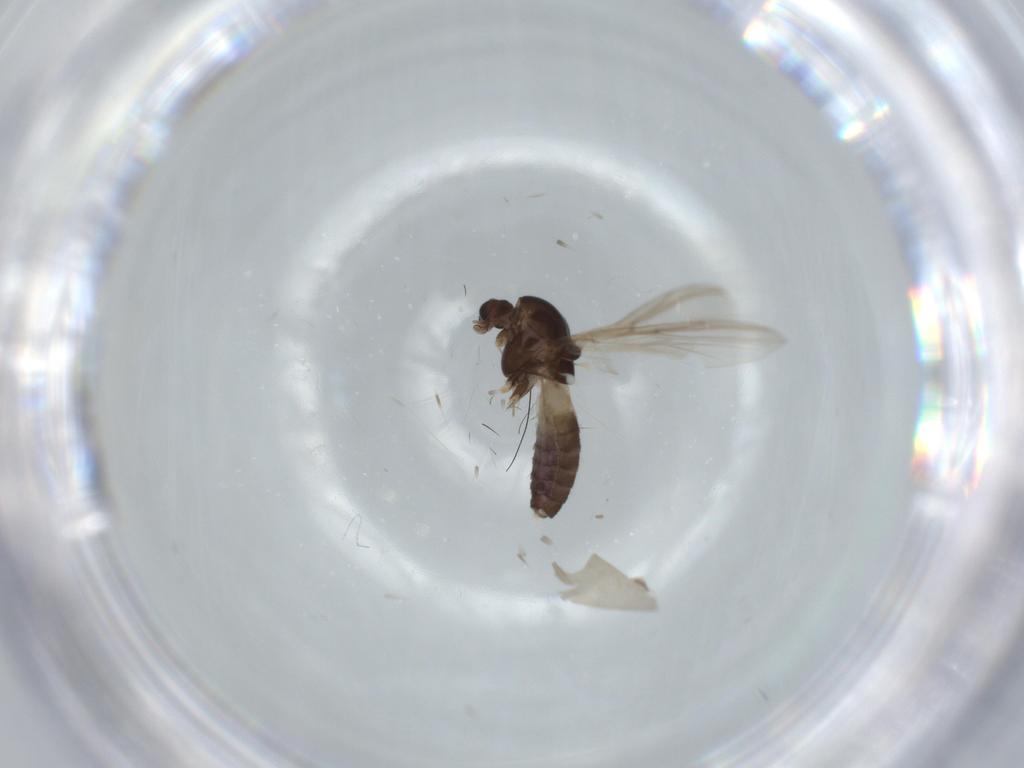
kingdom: Animalia
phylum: Arthropoda
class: Insecta
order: Diptera
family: Chironomidae
